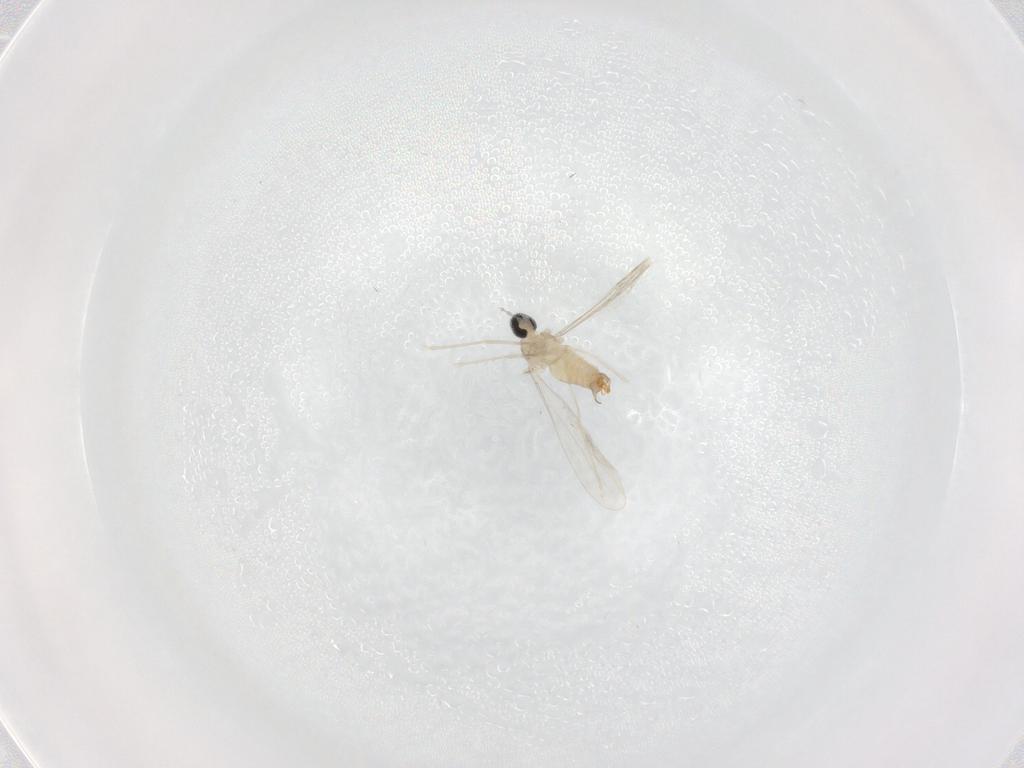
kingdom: Animalia
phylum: Arthropoda
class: Insecta
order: Diptera
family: Cecidomyiidae
